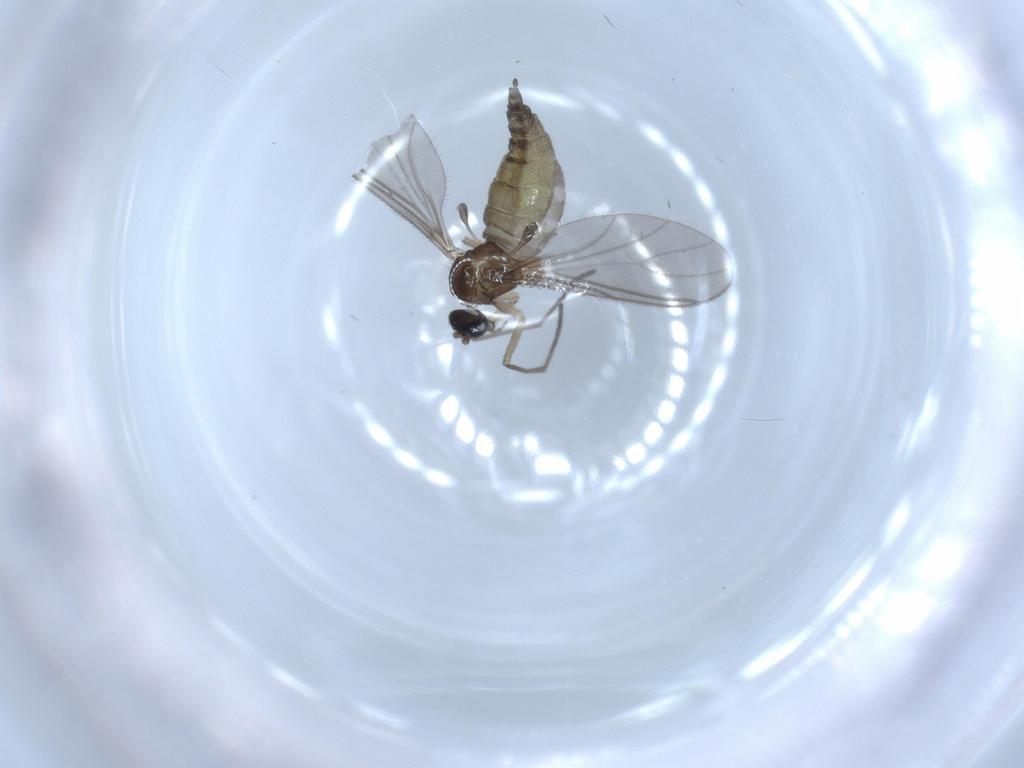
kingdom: Animalia
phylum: Arthropoda
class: Insecta
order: Diptera
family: Sciaridae
